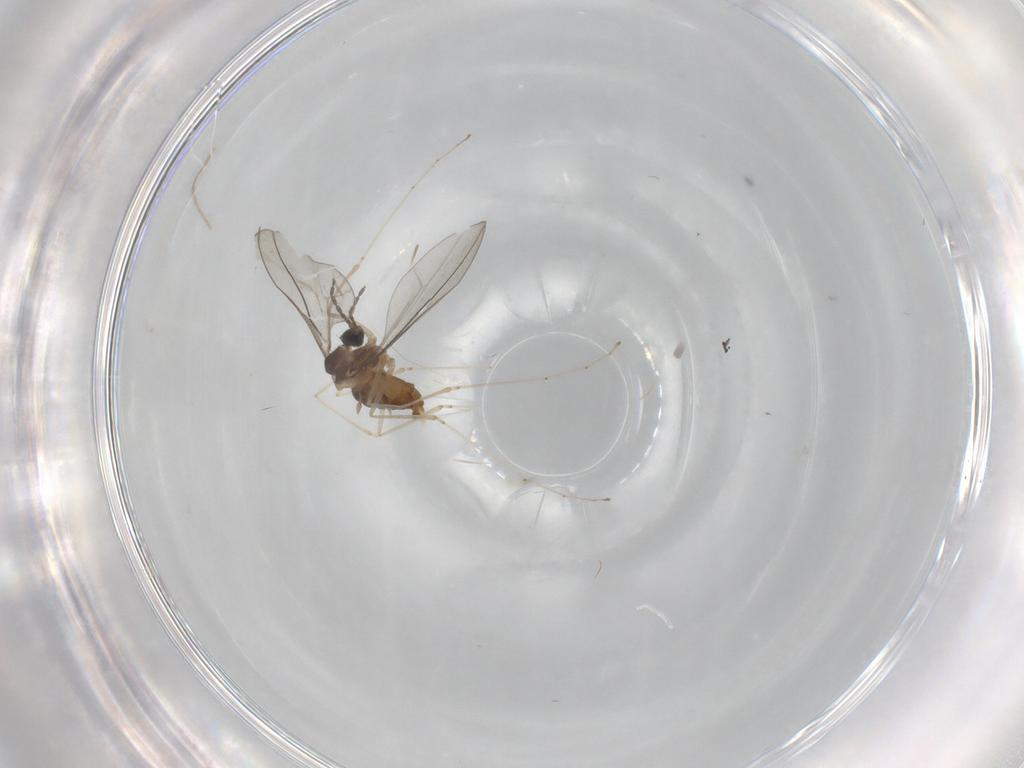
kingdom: Animalia
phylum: Arthropoda
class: Insecta
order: Diptera
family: Cecidomyiidae
